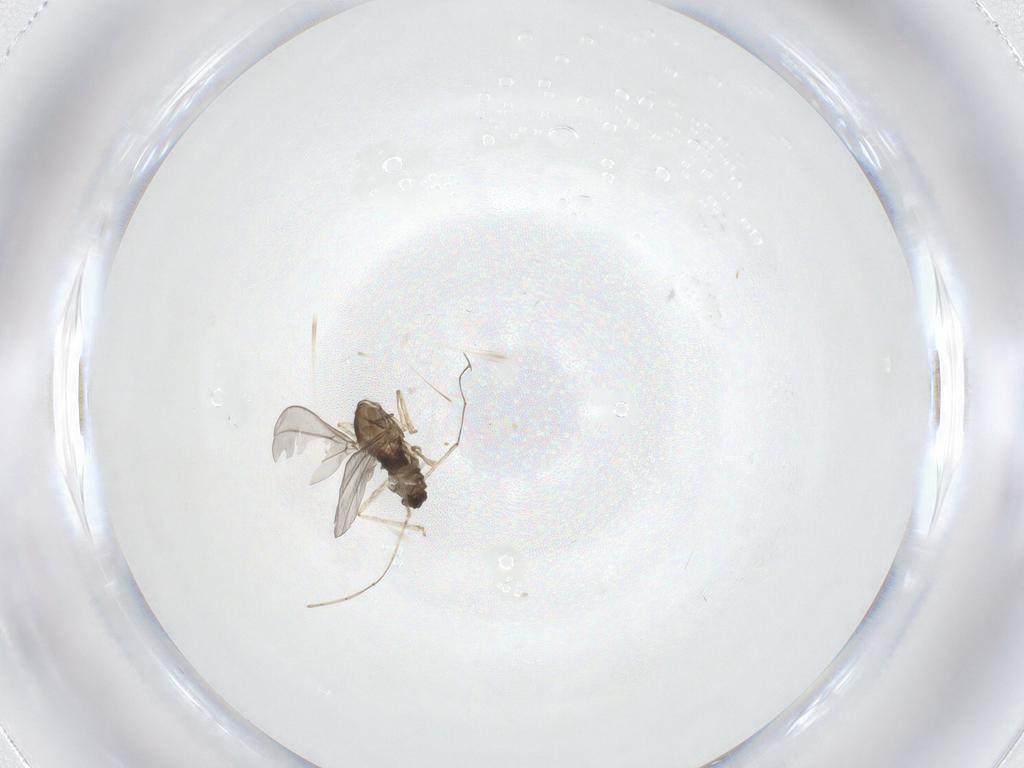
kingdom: Animalia
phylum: Arthropoda
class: Insecta
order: Diptera
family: Cecidomyiidae
